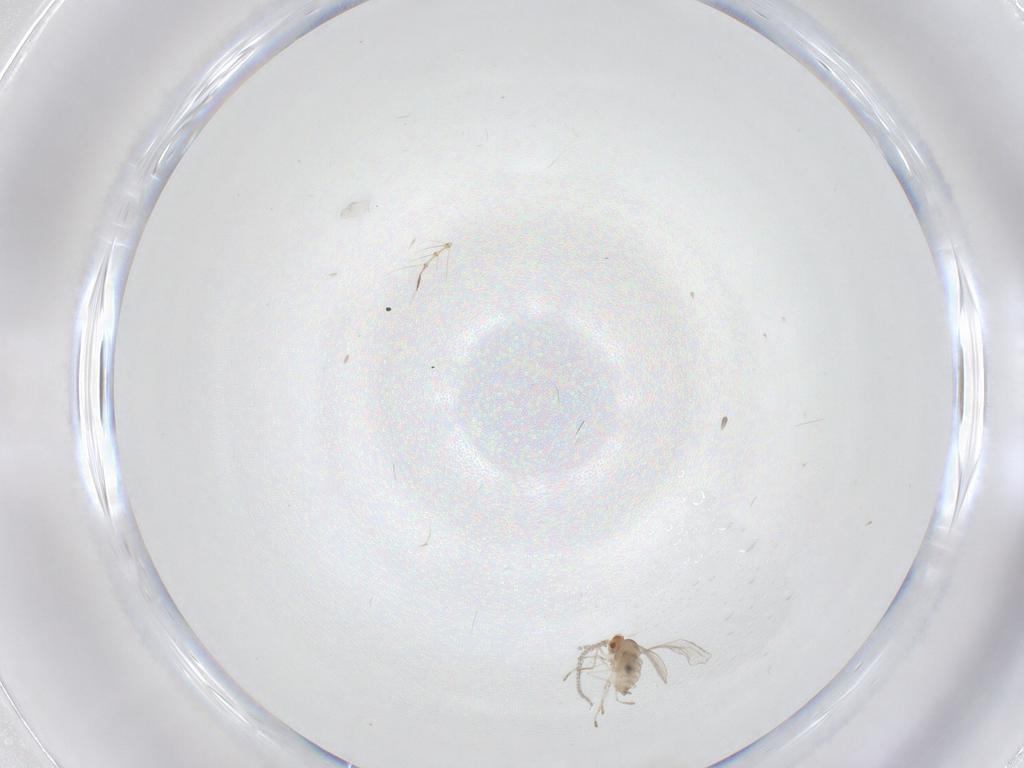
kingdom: Animalia
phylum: Arthropoda
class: Insecta
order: Diptera
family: Cecidomyiidae
